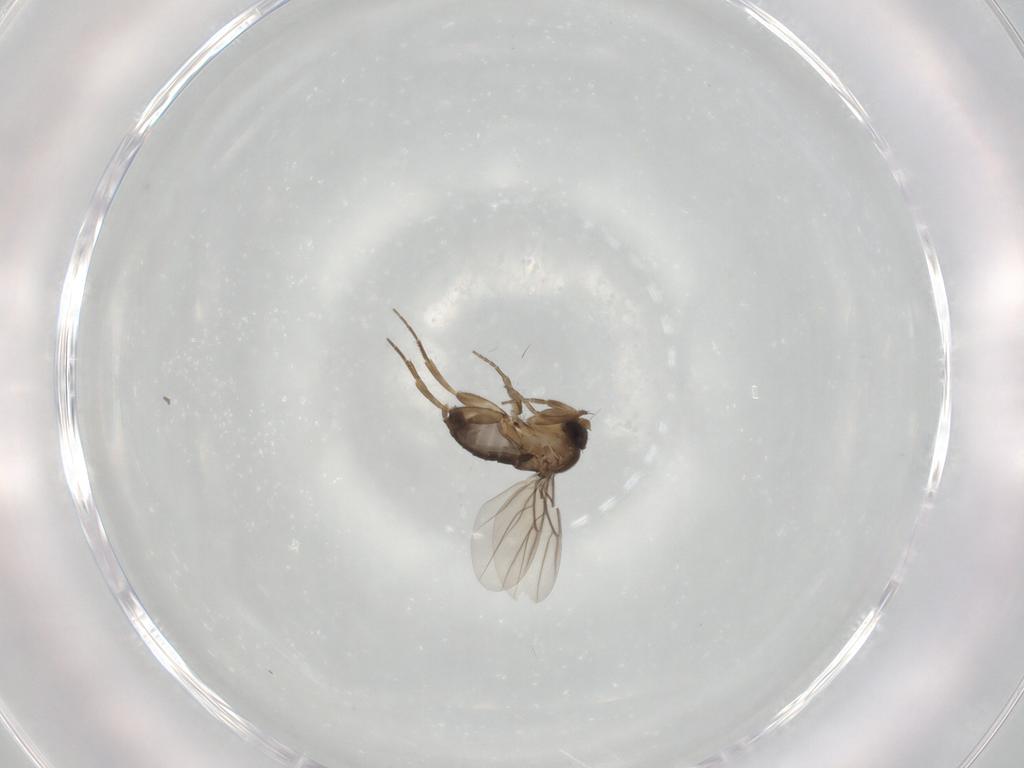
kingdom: Animalia
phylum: Arthropoda
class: Insecta
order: Diptera
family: Phoridae
